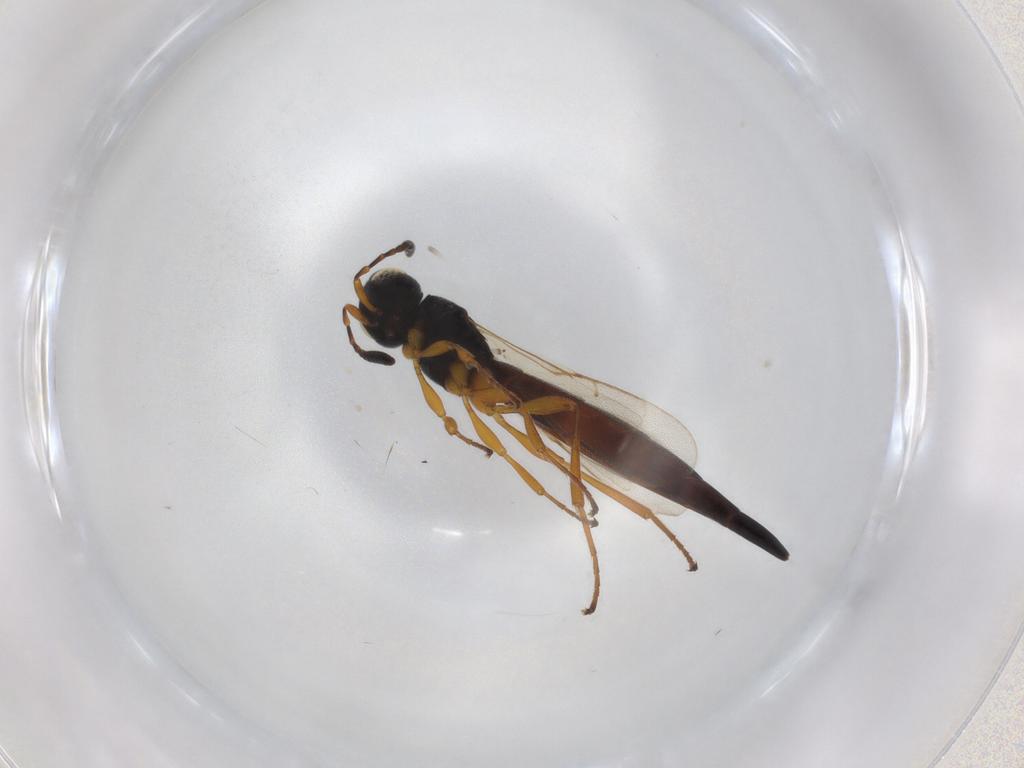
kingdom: Animalia
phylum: Arthropoda
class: Insecta
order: Hymenoptera
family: Scelionidae
